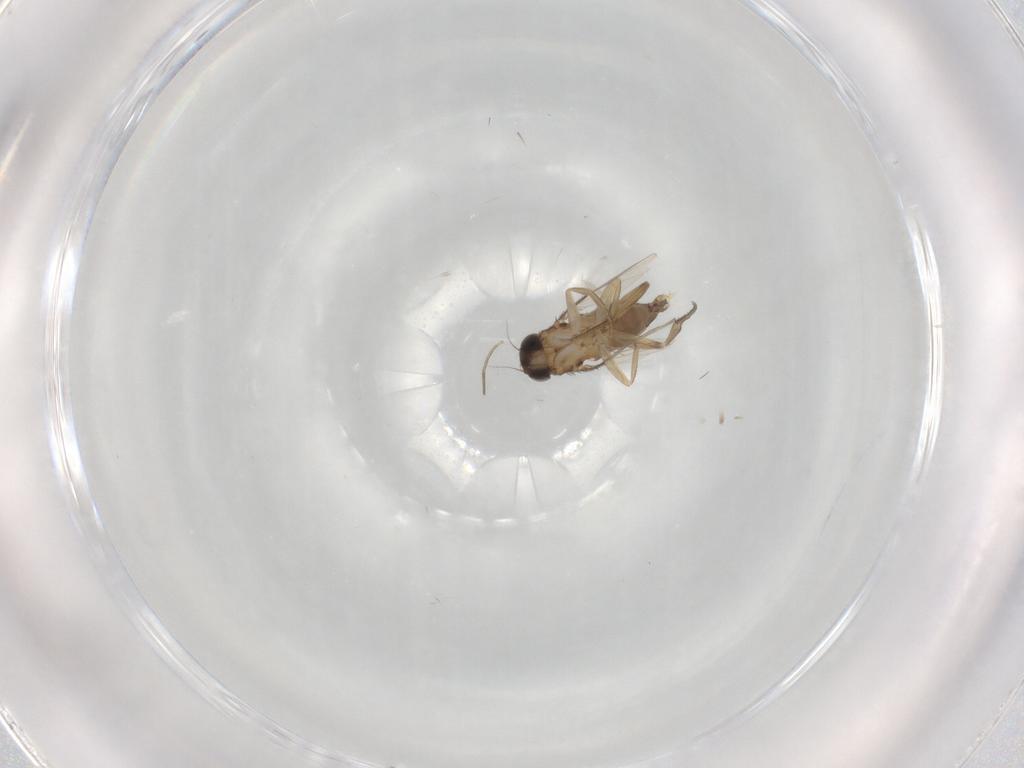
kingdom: Animalia
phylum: Arthropoda
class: Insecta
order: Diptera
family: Phoridae
